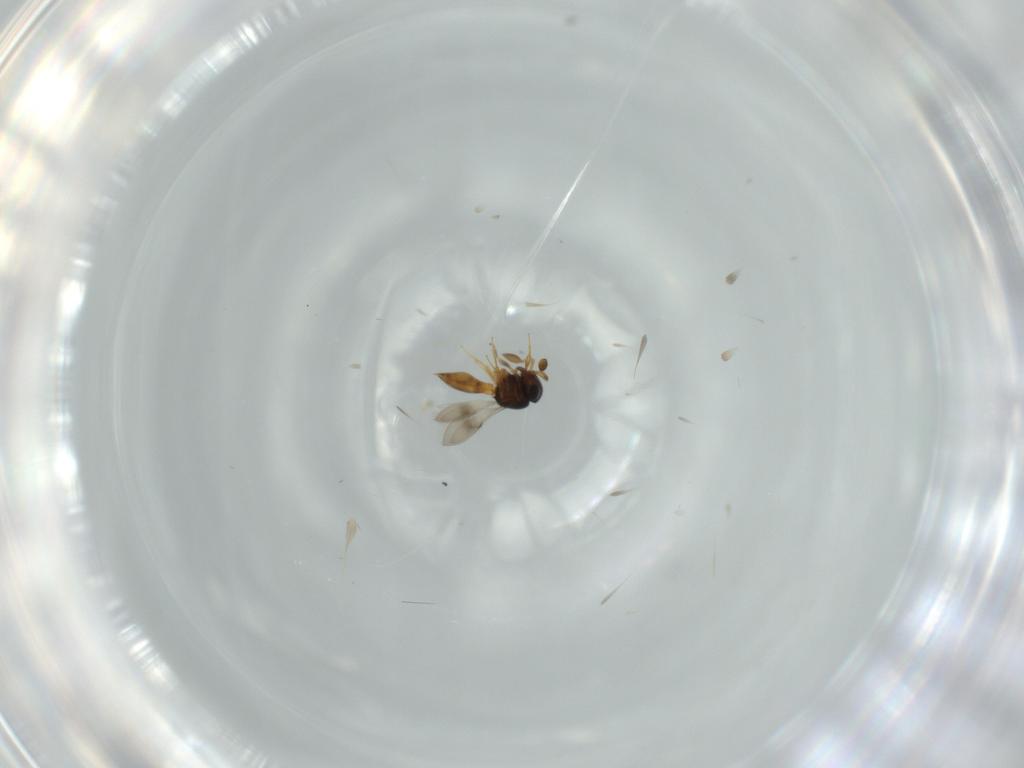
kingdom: Animalia
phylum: Arthropoda
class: Insecta
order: Hymenoptera
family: Scelionidae
